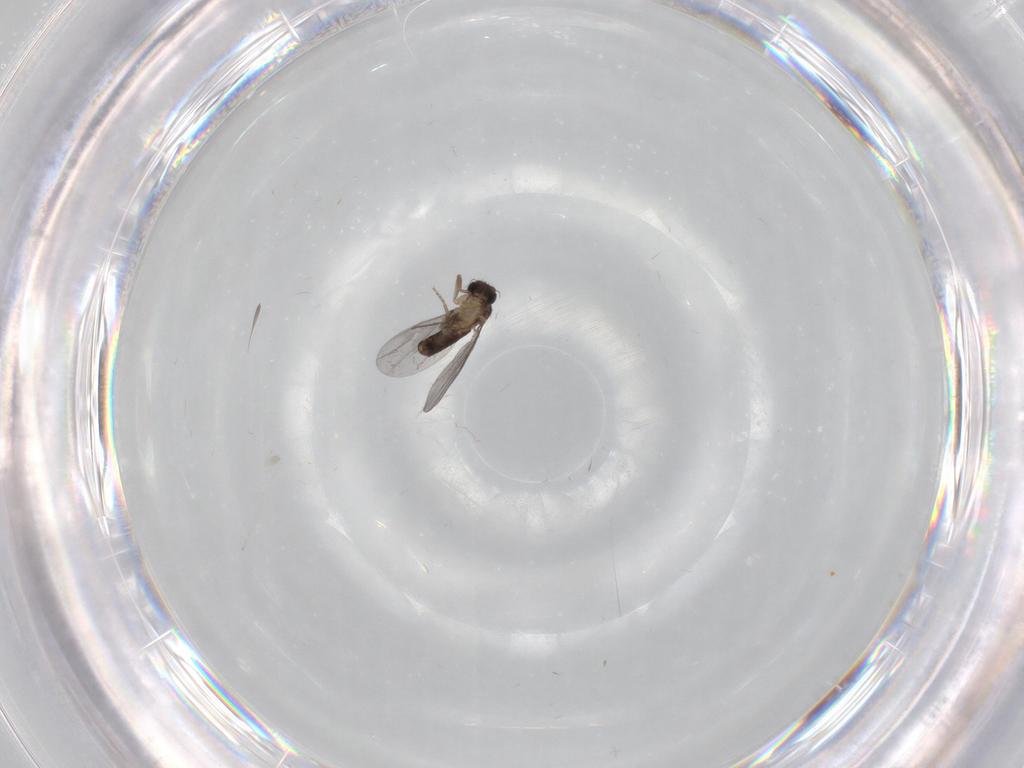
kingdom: Animalia
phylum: Arthropoda
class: Insecta
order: Diptera
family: Cecidomyiidae
